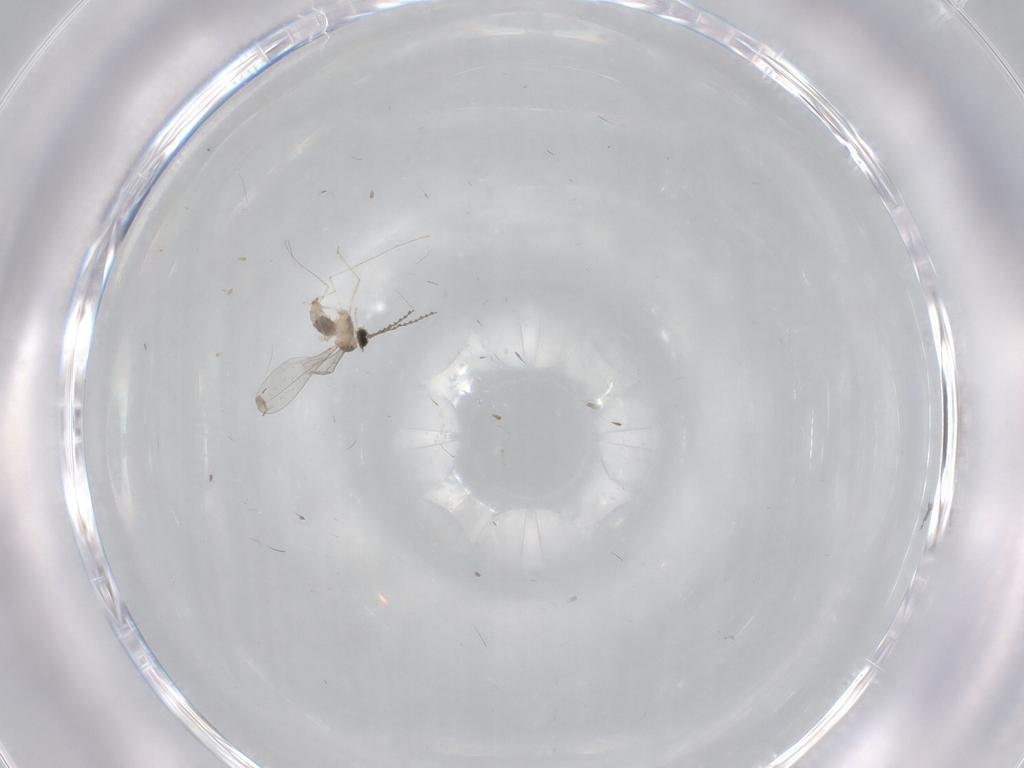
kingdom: Animalia
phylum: Arthropoda
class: Insecta
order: Diptera
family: Cecidomyiidae
